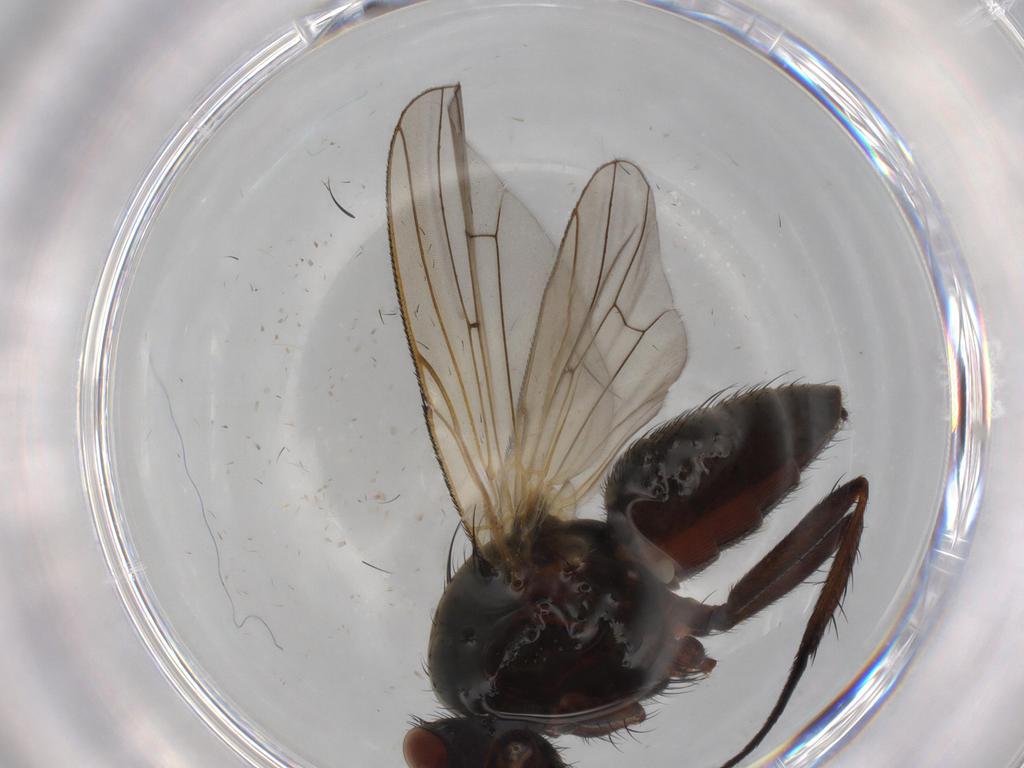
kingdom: Animalia
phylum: Arthropoda
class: Insecta
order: Diptera
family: Anthomyiidae
